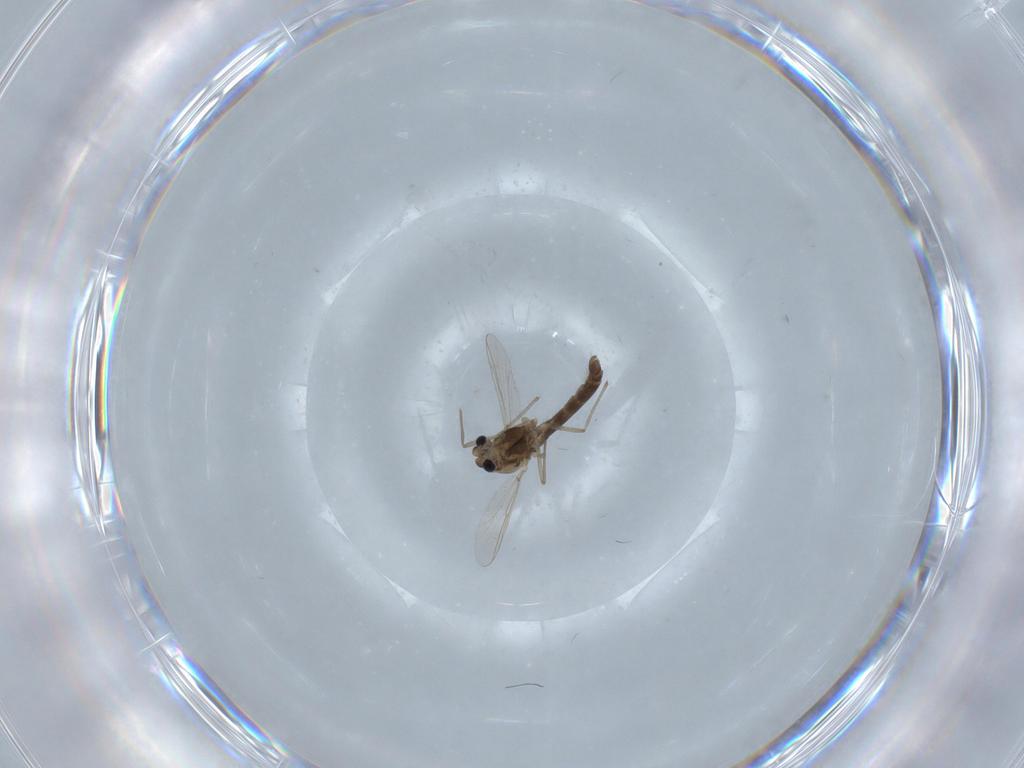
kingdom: Animalia
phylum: Arthropoda
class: Insecta
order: Diptera
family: Chironomidae
